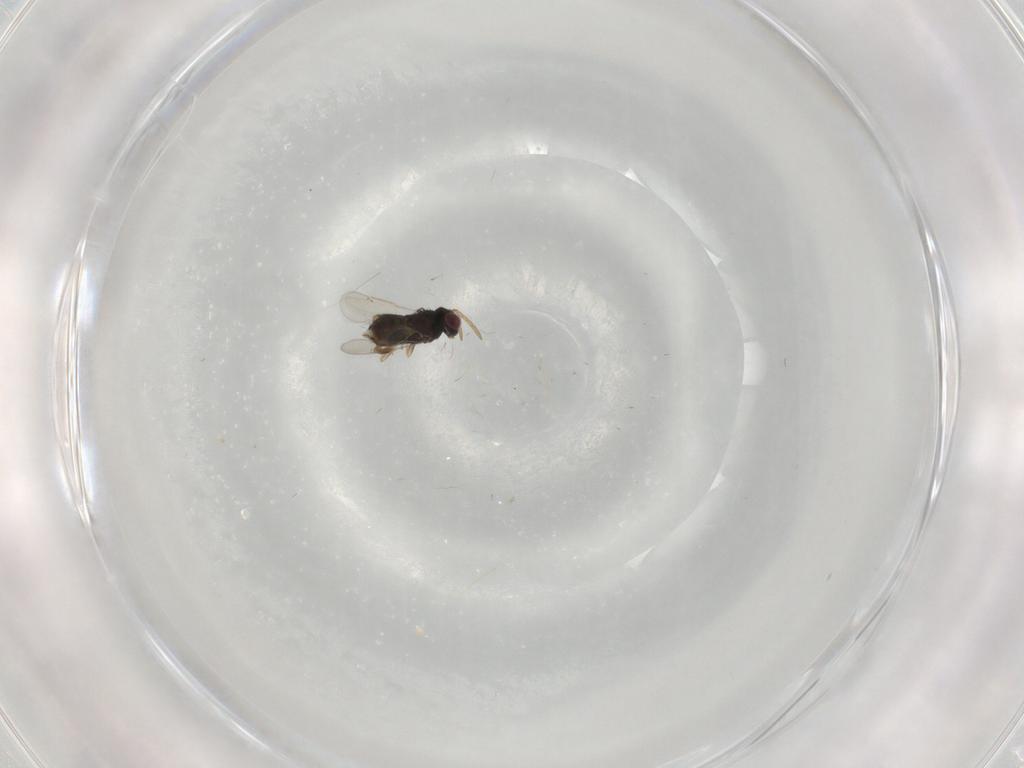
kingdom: Animalia
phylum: Arthropoda
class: Insecta
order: Hymenoptera
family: Aphelinidae
